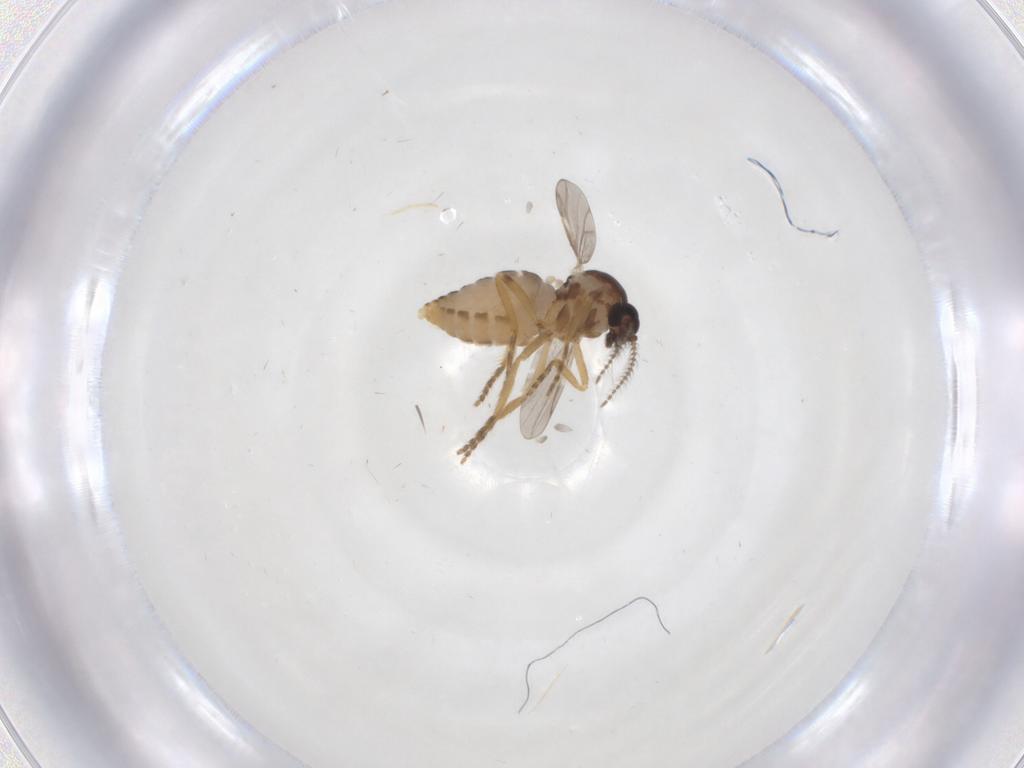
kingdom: Animalia
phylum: Arthropoda
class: Insecta
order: Diptera
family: Ceratopogonidae
